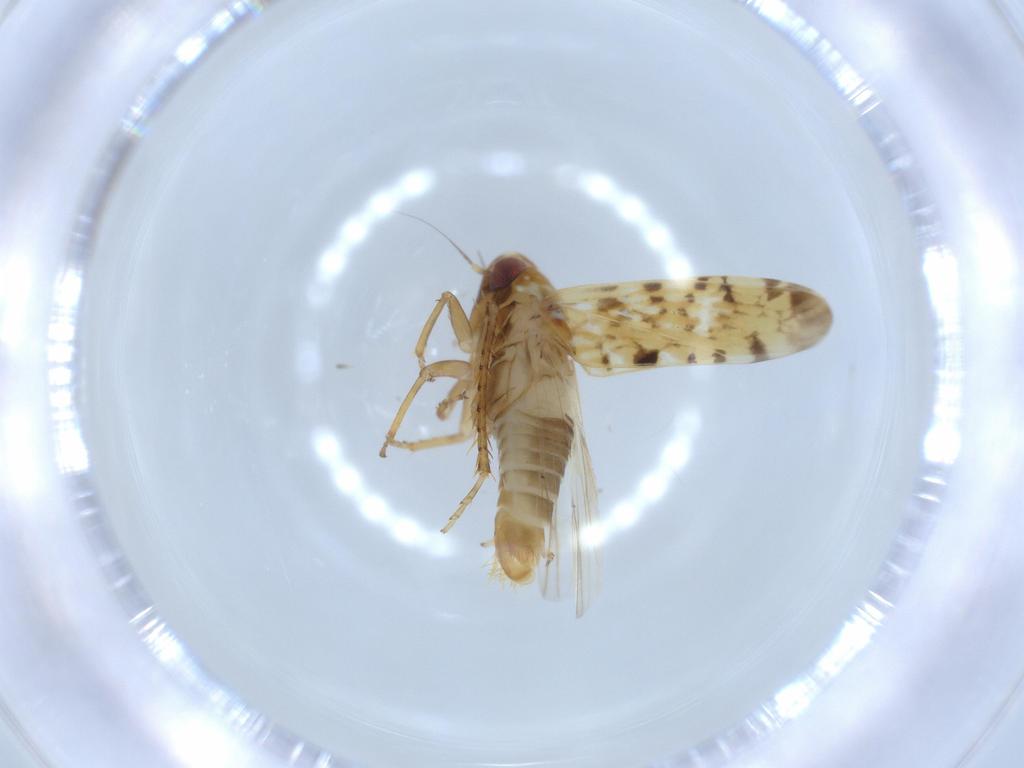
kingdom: Animalia
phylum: Arthropoda
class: Insecta
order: Hemiptera
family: Cicadellidae
